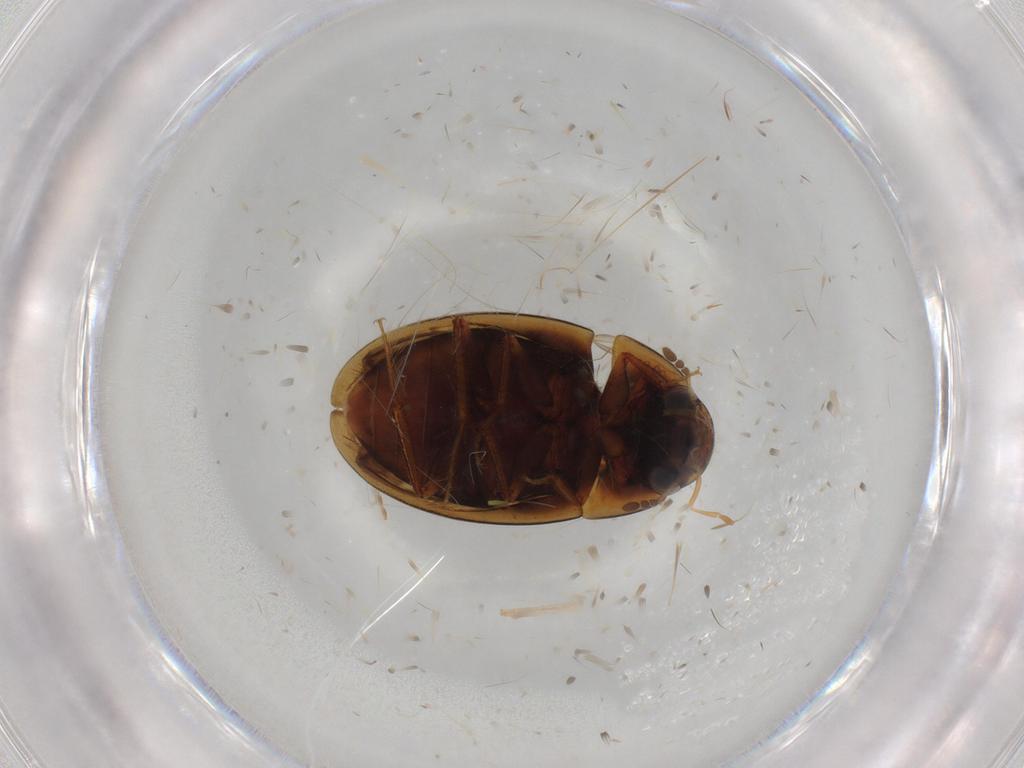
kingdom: Animalia
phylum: Arthropoda
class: Insecta
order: Coleoptera
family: Hydrophilidae
